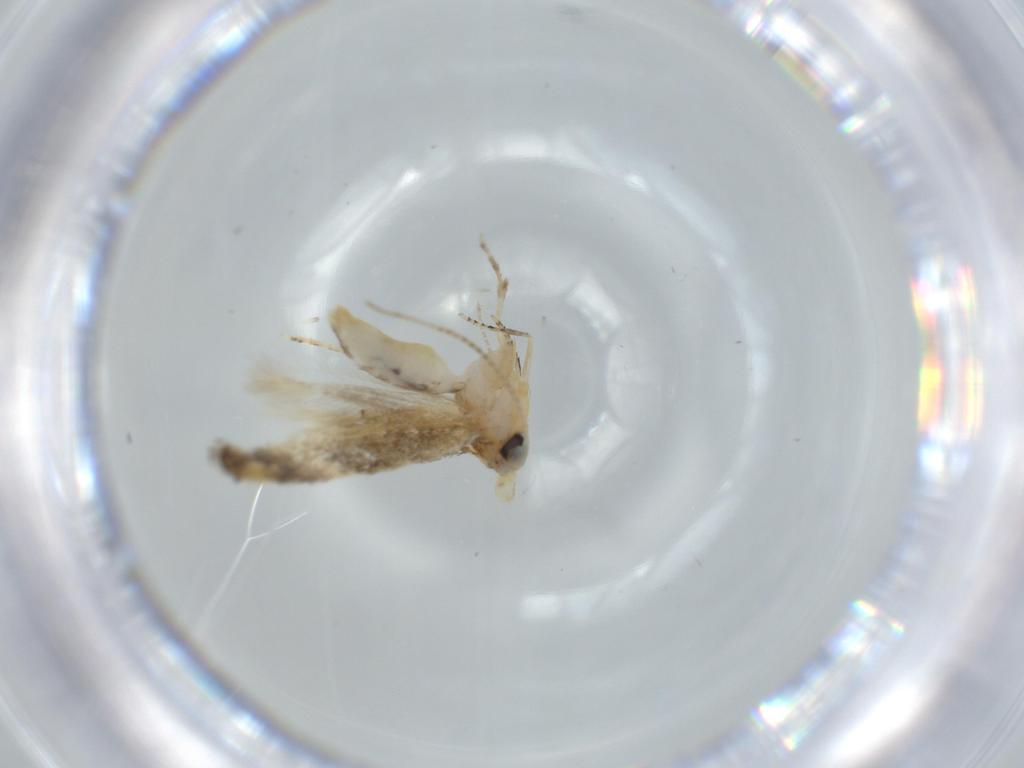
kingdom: Animalia
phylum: Arthropoda
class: Insecta
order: Lepidoptera
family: Bucculatricidae
